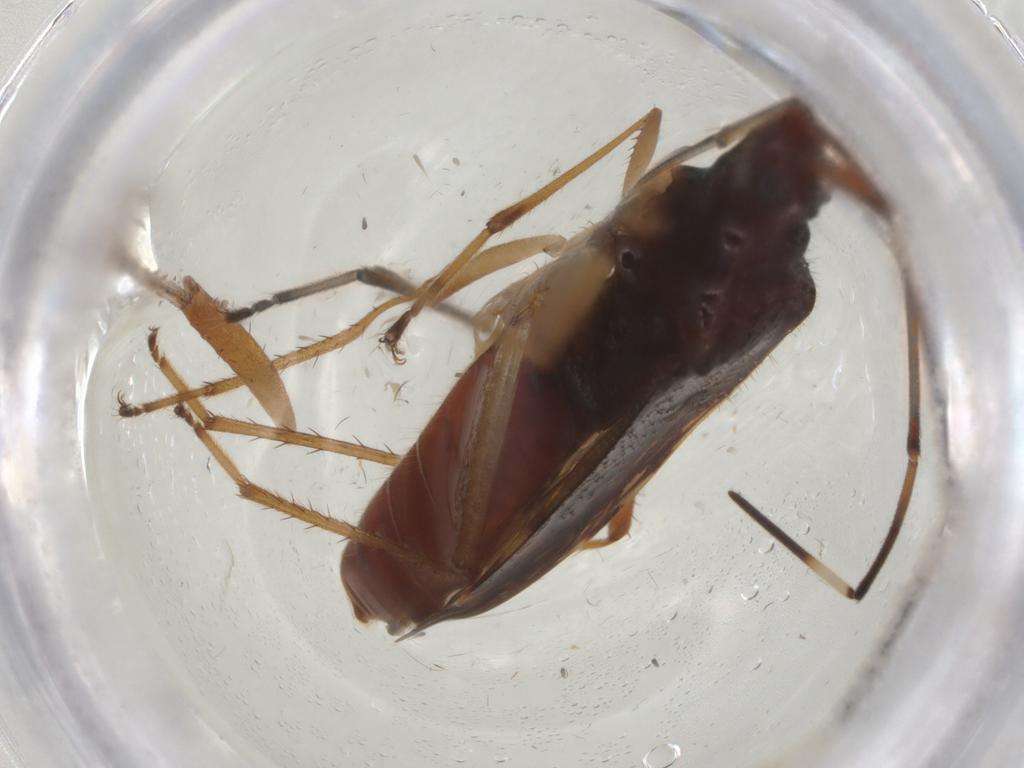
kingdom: Animalia
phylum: Arthropoda
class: Insecta
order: Hemiptera
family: Rhyparochromidae
